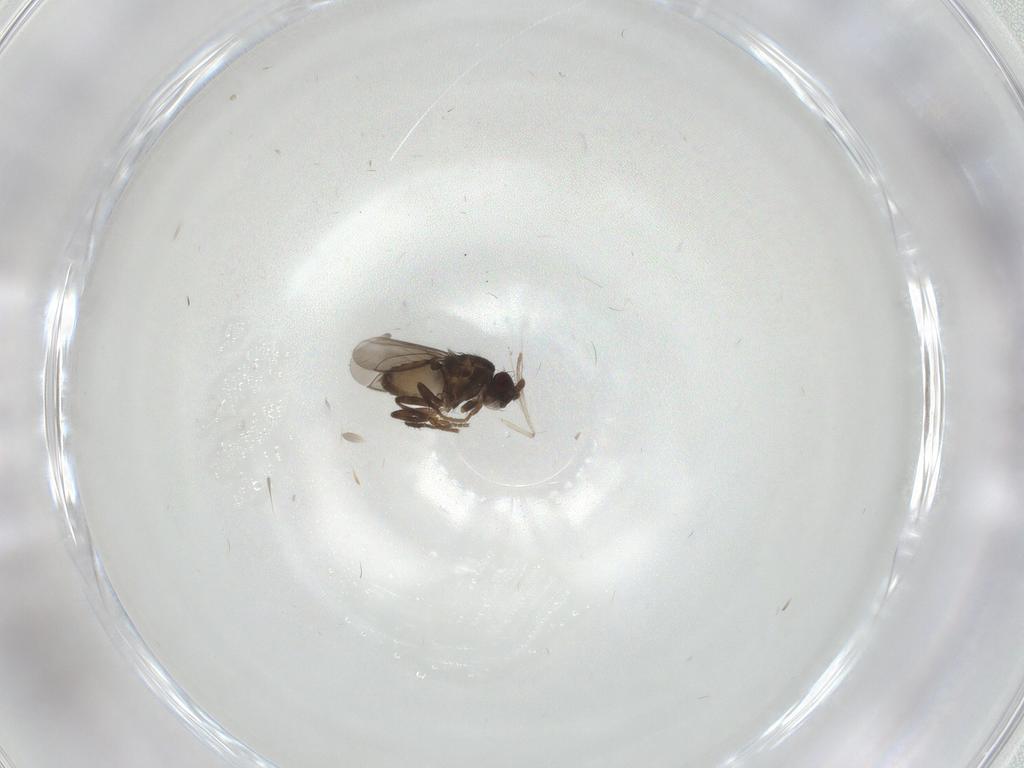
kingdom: Animalia
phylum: Arthropoda
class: Insecta
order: Diptera
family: Sphaeroceridae
